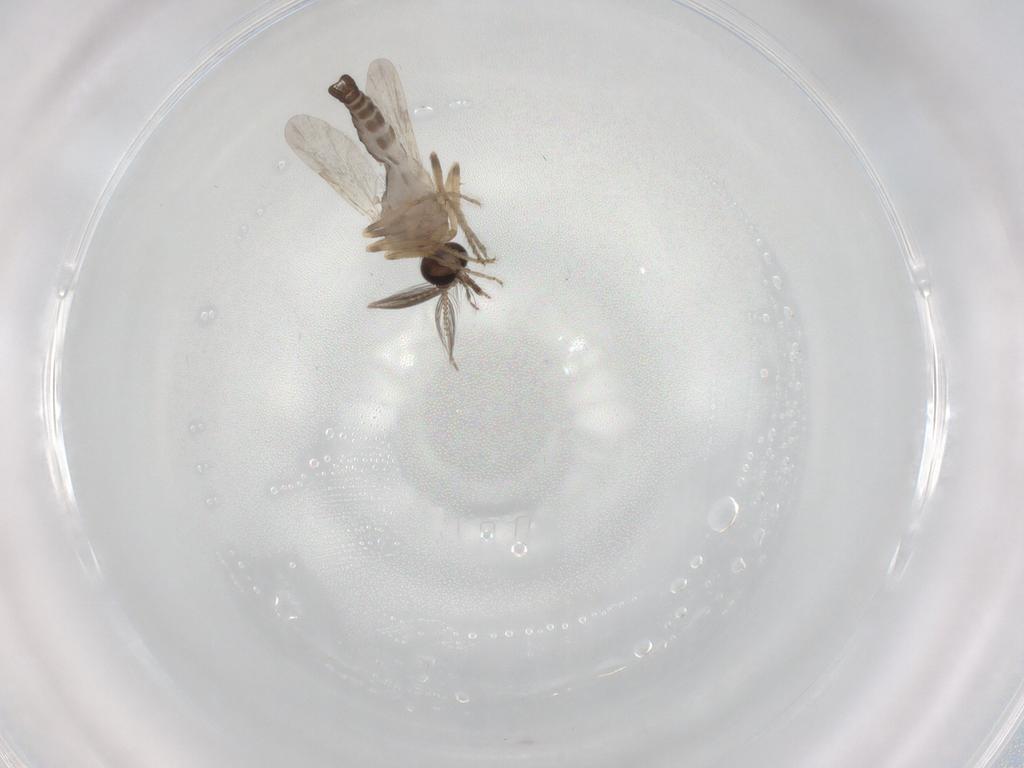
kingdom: Animalia
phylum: Arthropoda
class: Insecta
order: Diptera
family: Ceratopogonidae
